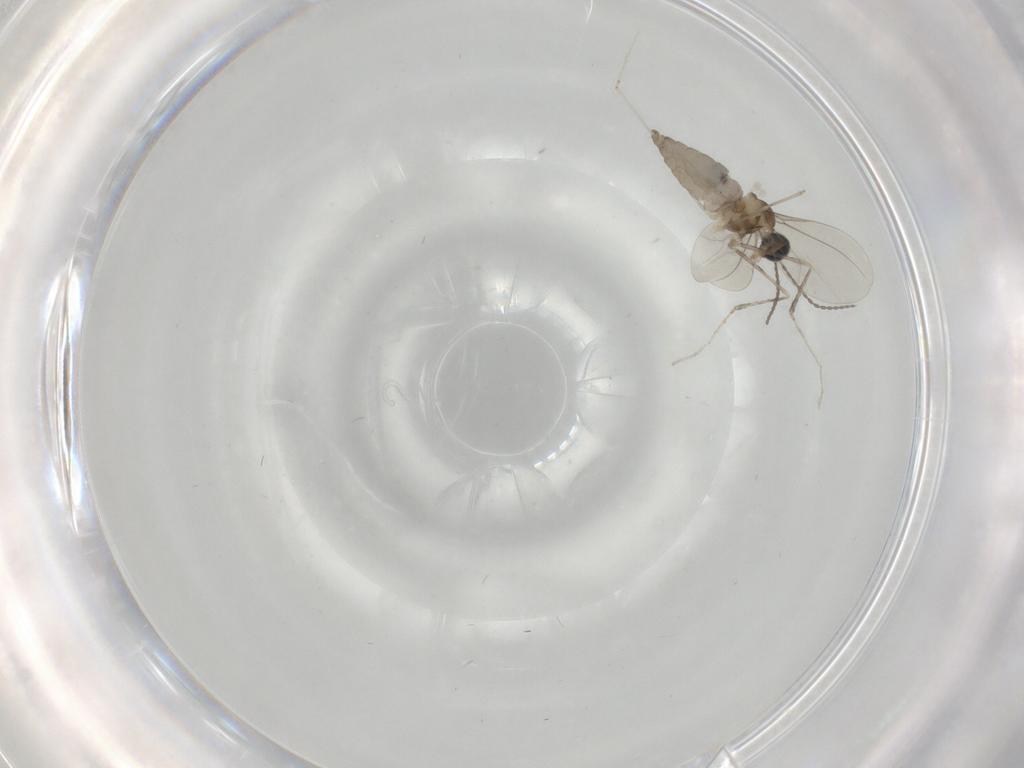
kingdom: Animalia
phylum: Arthropoda
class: Insecta
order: Diptera
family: Cecidomyiidae
